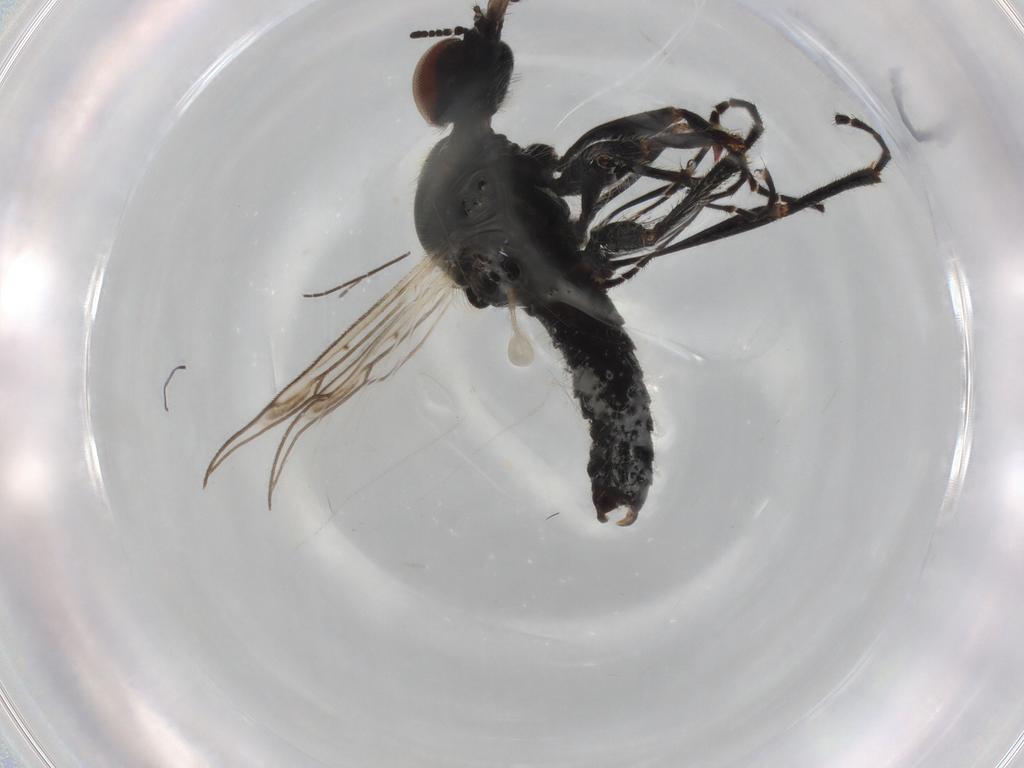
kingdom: Animalia
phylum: Arthropoda
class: Insecta
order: Diptera
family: Bibionidae
